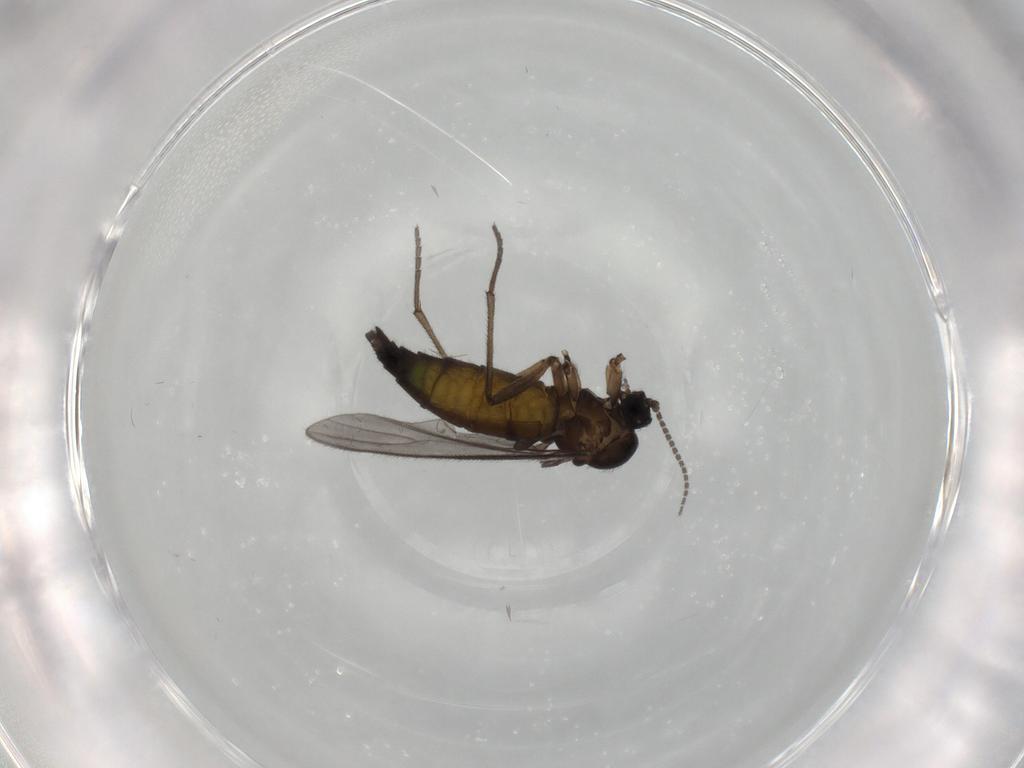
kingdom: Animalia
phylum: Arthropoda
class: Insecta
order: Diptera
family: Sciaridae
